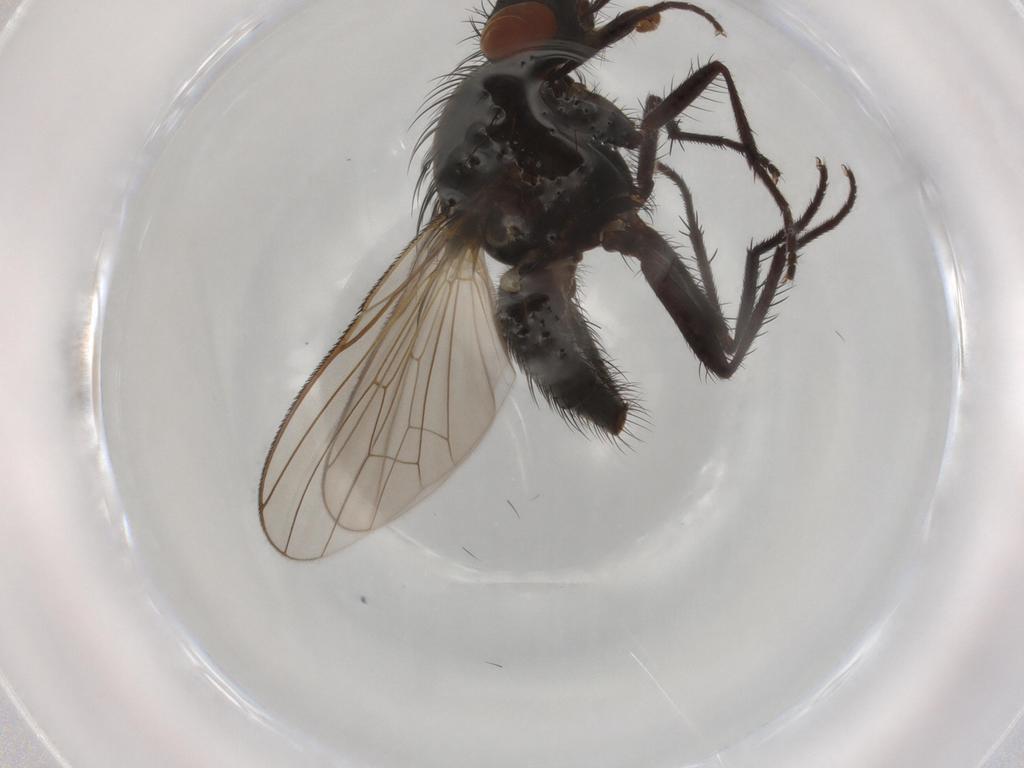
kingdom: Animalia
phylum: Arthropoda
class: Insecta
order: Diptera
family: Anthomyiidae
